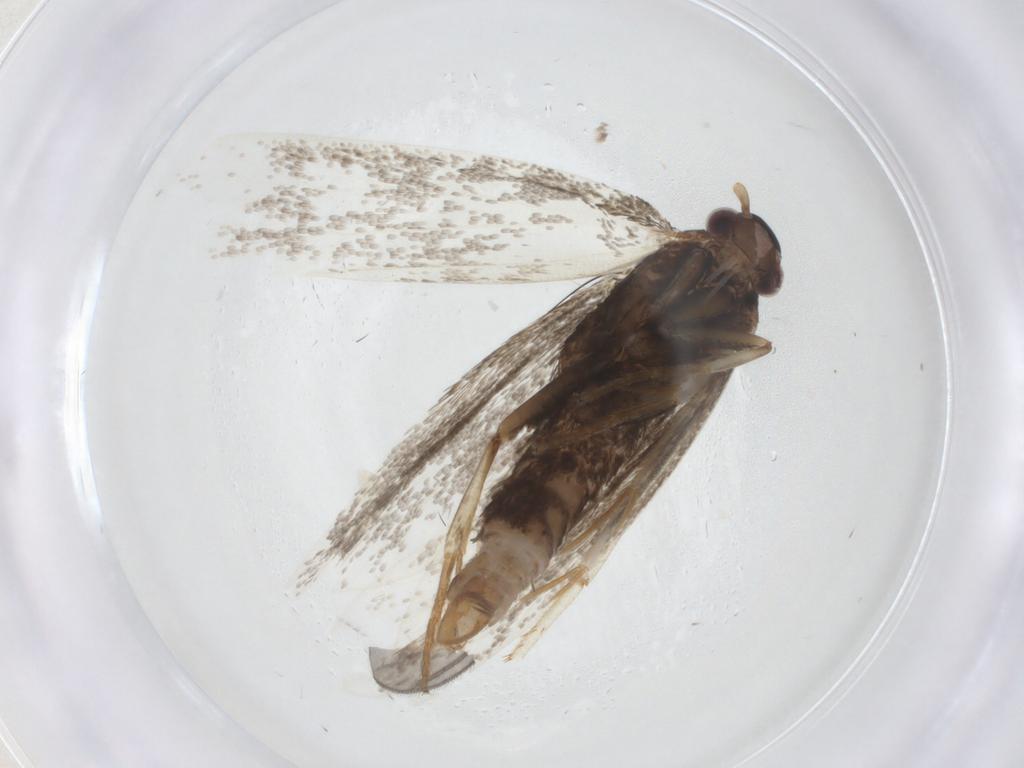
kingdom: Animalia
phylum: Arthropoda
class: Insecta
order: Lepidoptera
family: Lecithoceridae
